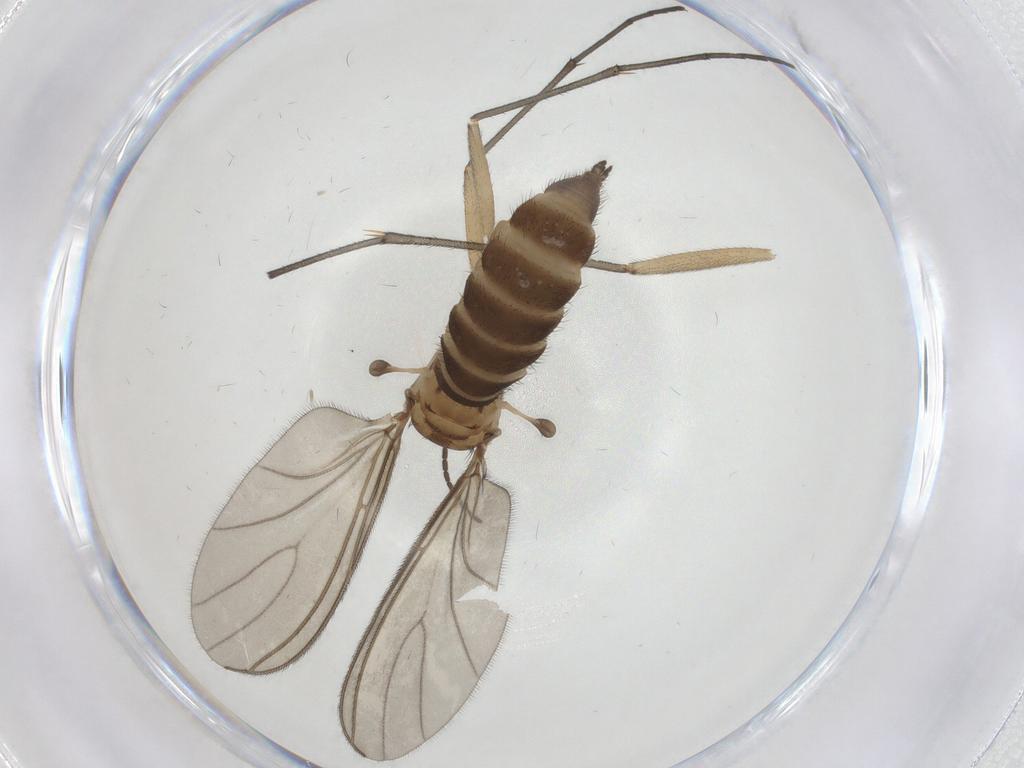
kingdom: Animalia
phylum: Arthropoda
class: Insecta
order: Diptera
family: Sciaridae
